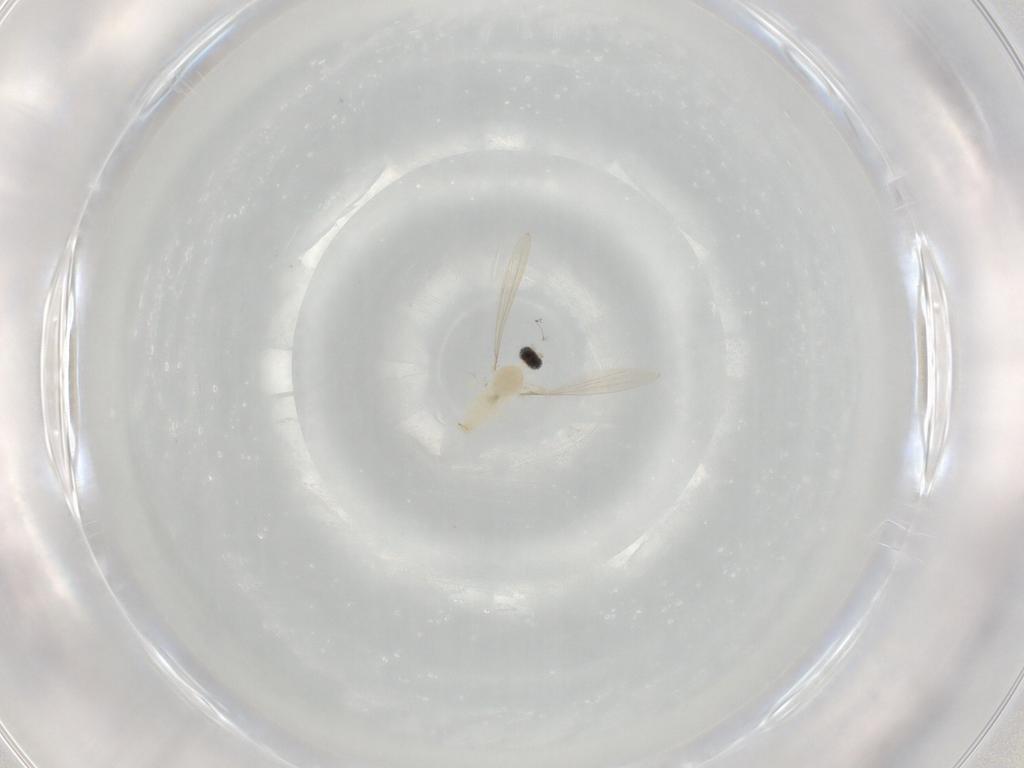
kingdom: Animalia
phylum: Arthropoda
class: Insecta
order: Diptera
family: Cecidomyiidae
